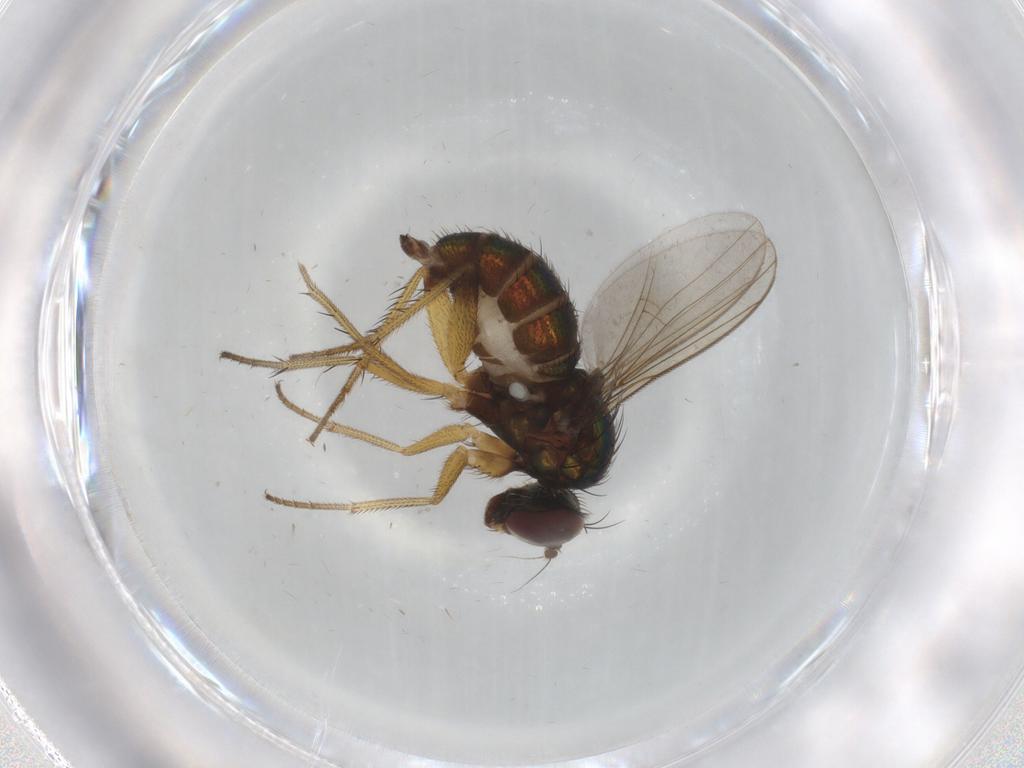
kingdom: Animalia
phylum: Arthropoda
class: Insecta
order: Diptera
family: Dolichopodidae
